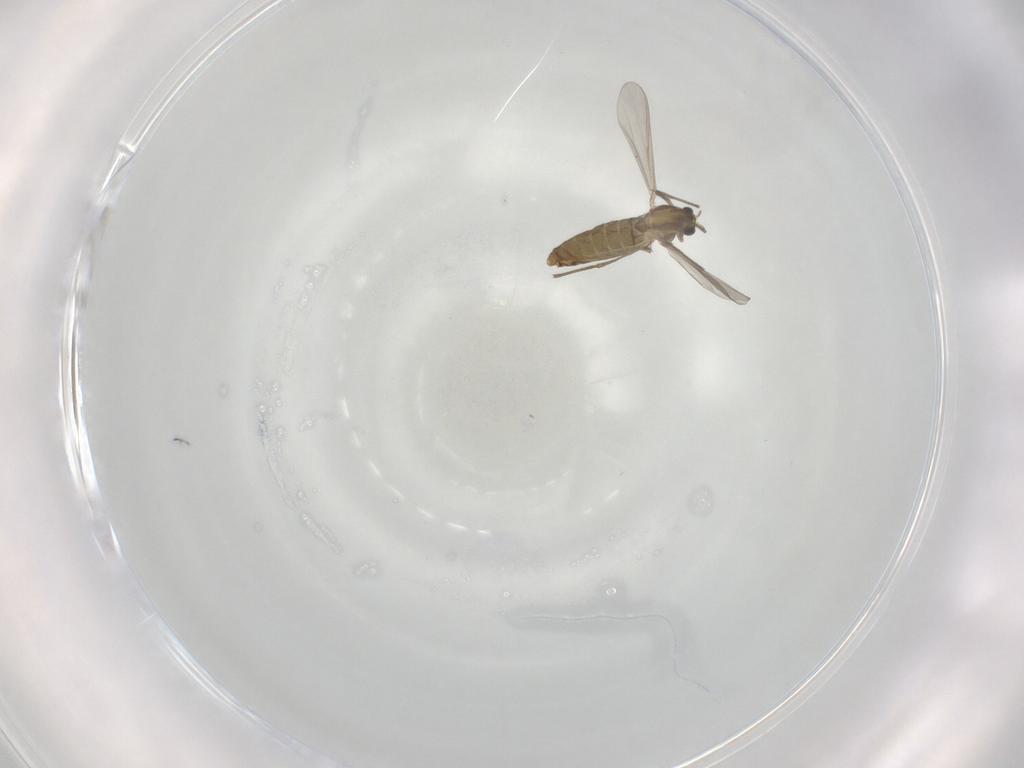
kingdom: Animalia
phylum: Arthropoda
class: Insecta
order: Diptera
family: Chironomidae
